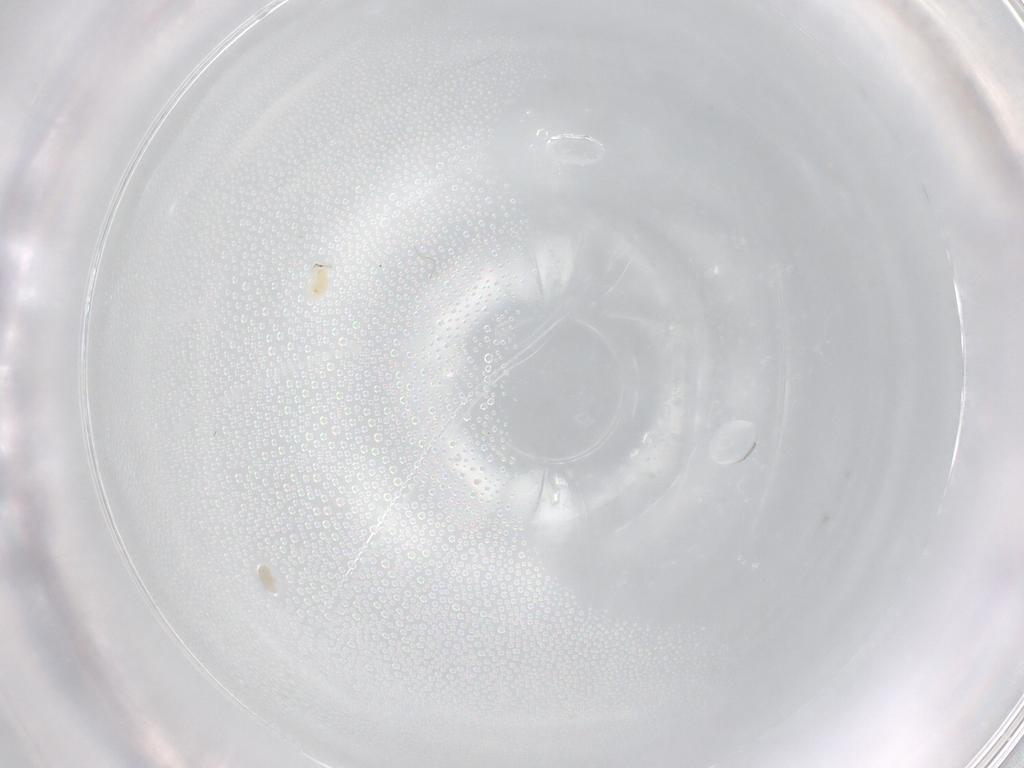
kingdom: Animalia
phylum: Arthropoda
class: Arachnida
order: Trombidiformes
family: Tetranychidae
